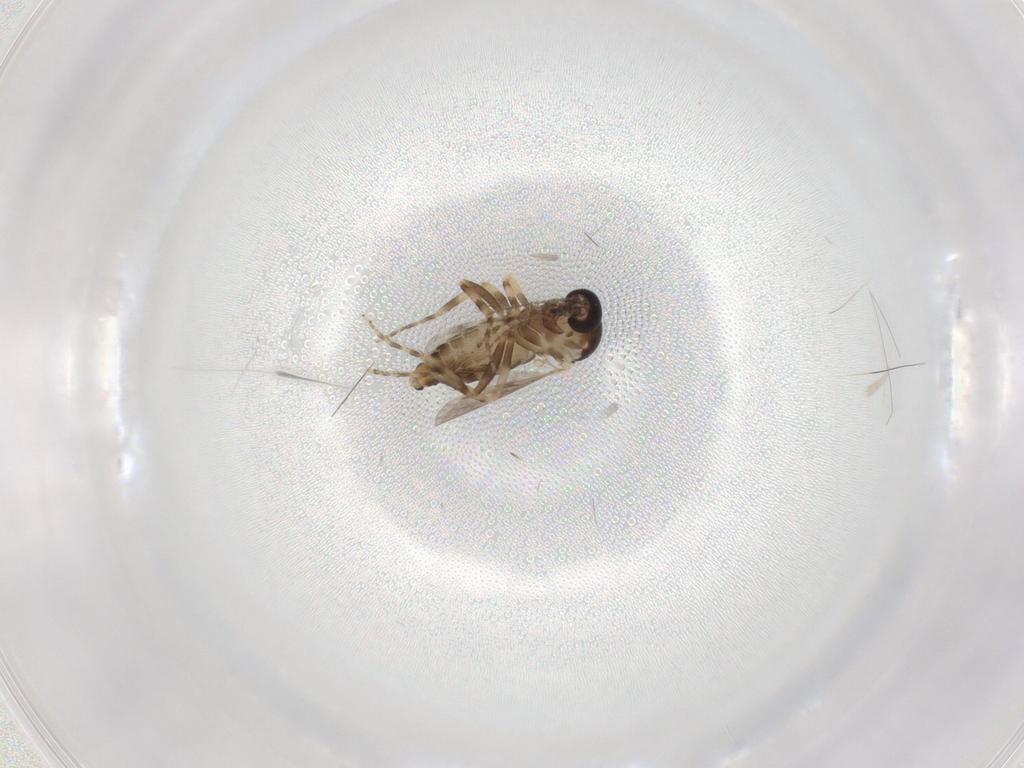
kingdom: Animalia
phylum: Arthropoda
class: Insecta
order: Diptera
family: Ceratopogonidae
